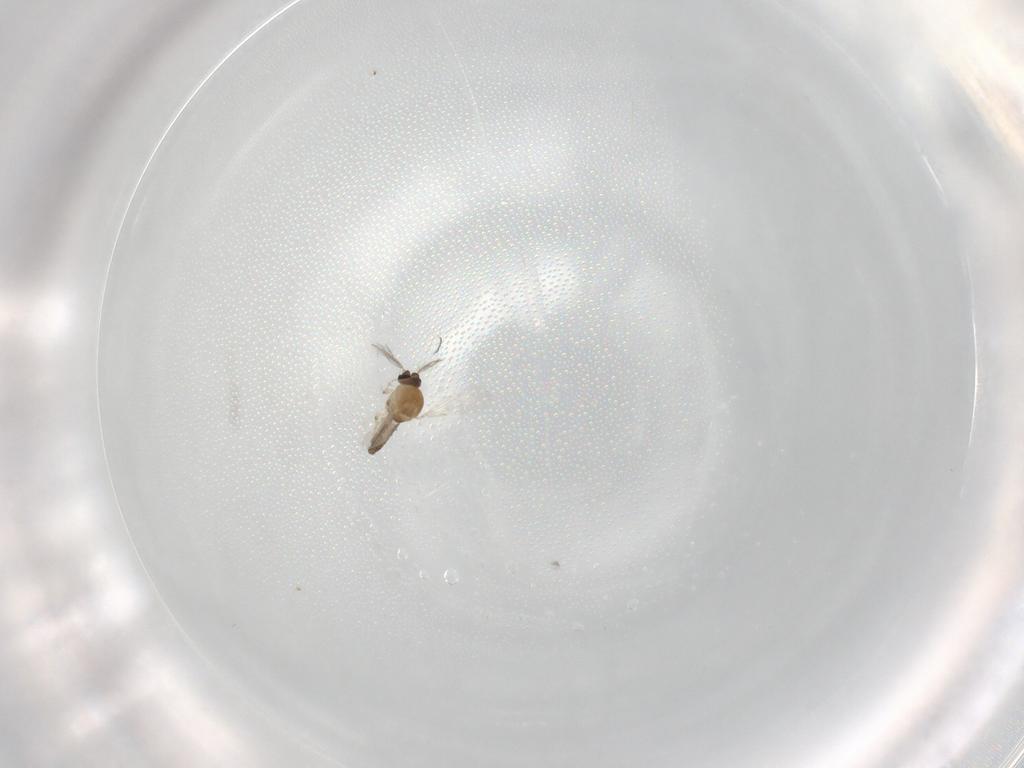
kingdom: Animalia
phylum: Arthropoda
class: Insecta
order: Diptera
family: Ceratopogonidae
